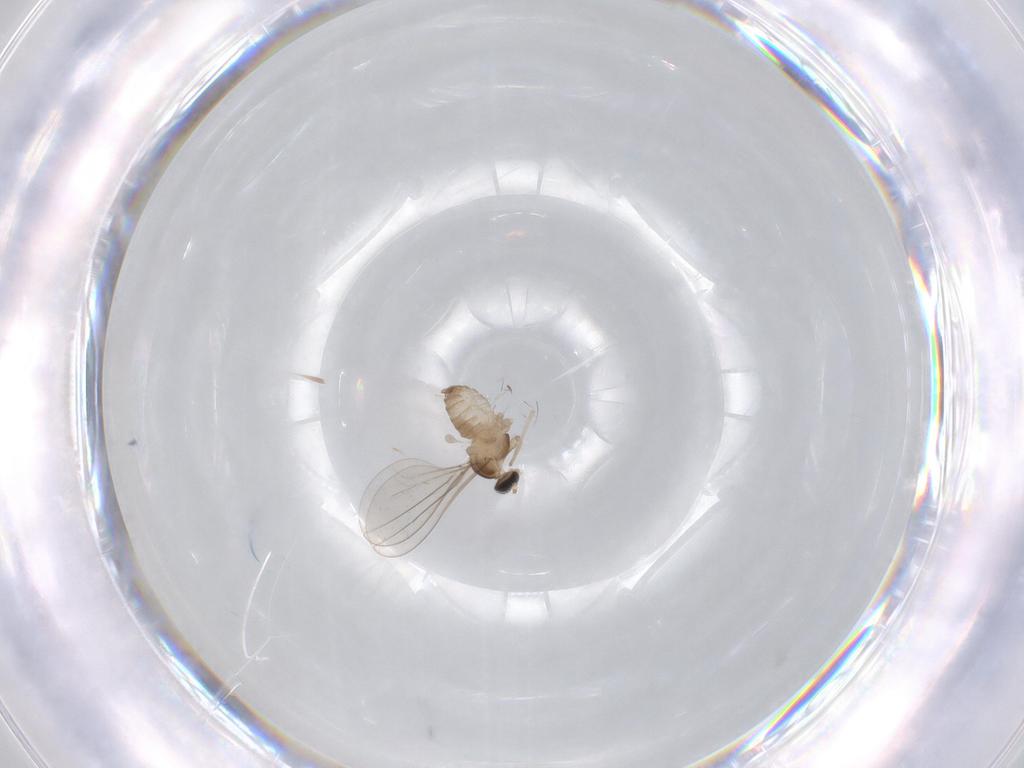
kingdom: Animalia
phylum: Arthropoda
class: Insecta
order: Diptera
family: Cecidomyiidae
